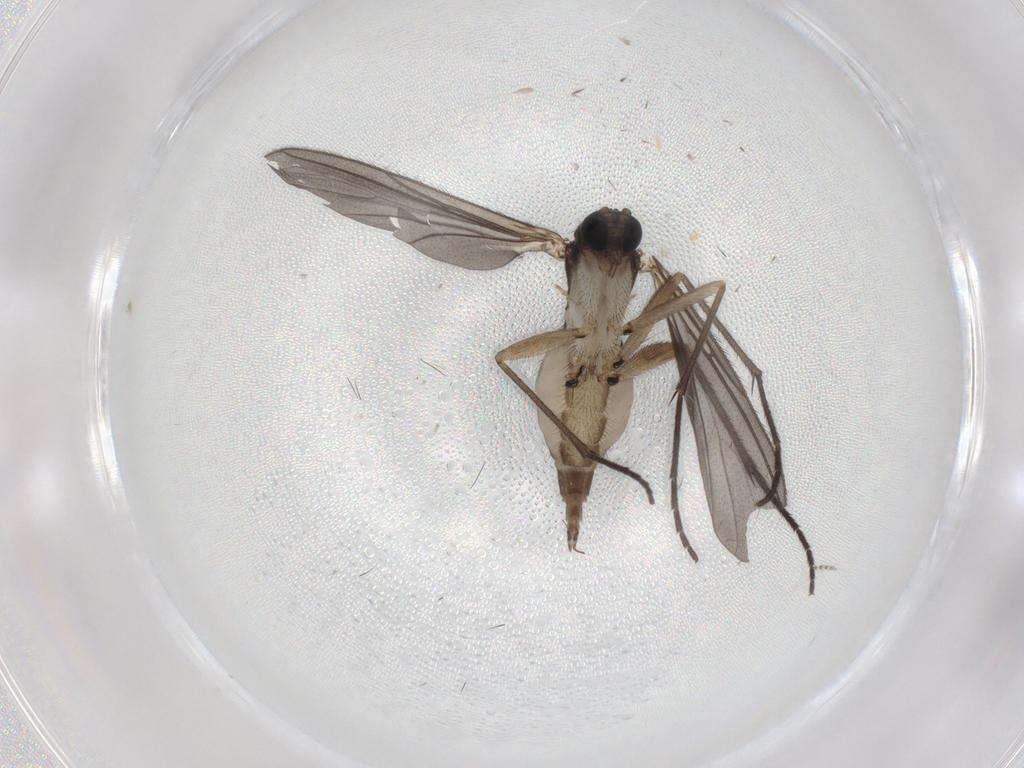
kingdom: Animalia
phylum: Arthropoda
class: Insecta
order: Diptera
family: Sciaridae
